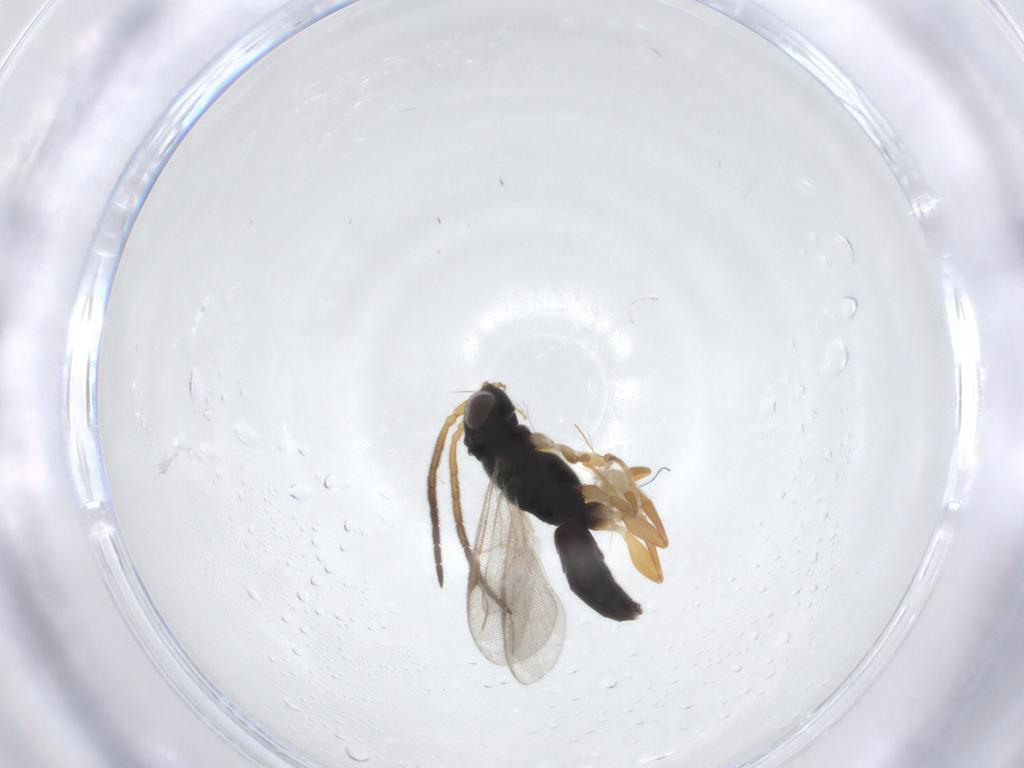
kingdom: Animalia
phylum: Arthropoda
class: Insecta
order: Hymenoptera
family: Dryinidae
